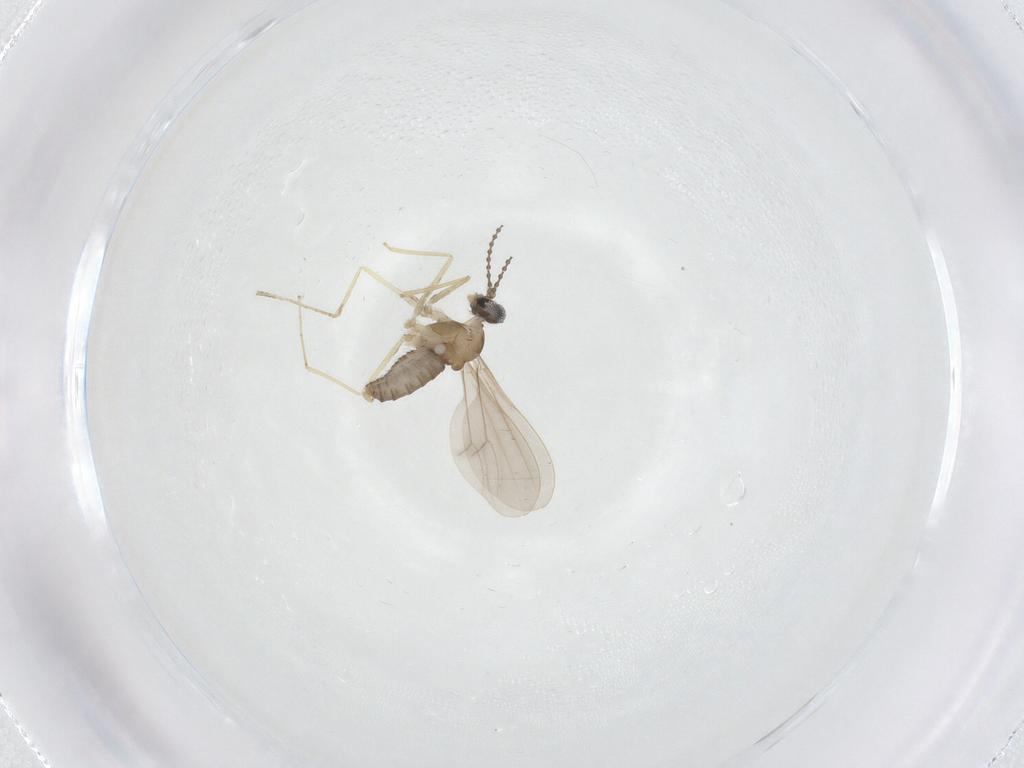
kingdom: Animalia
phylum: Arthropoda
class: Insecta
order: Diptera
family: Cecidomyiidae
